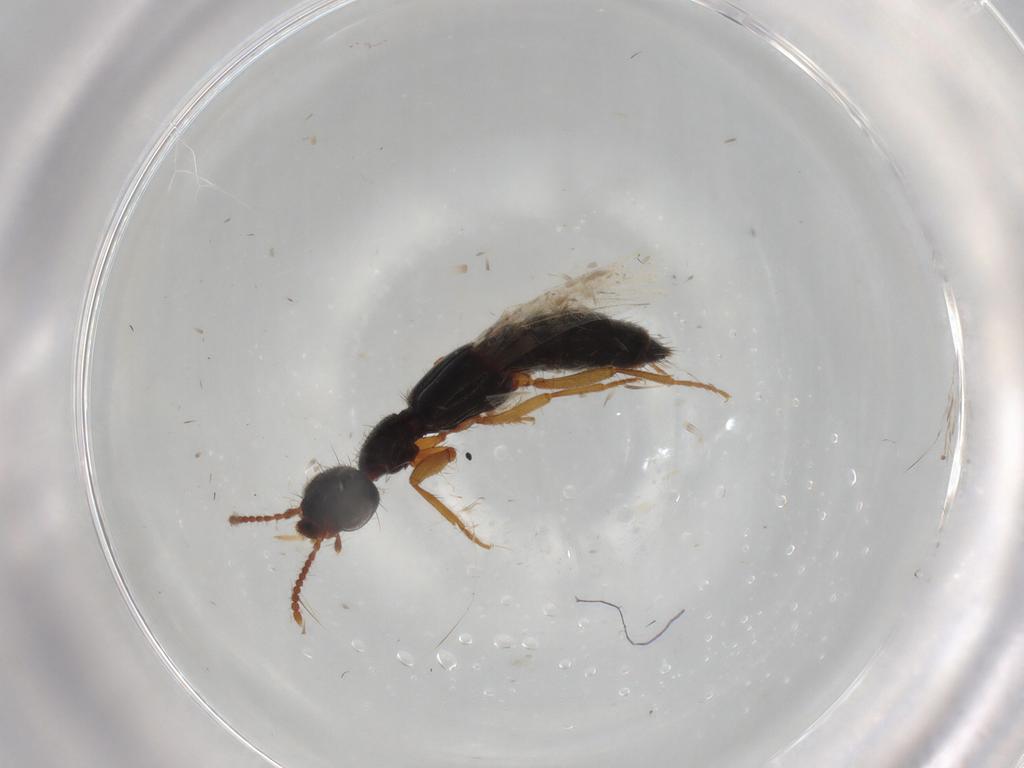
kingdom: Animalia
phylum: Arthropoda
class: Insecta
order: Coleoptera
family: Staphylinidae
